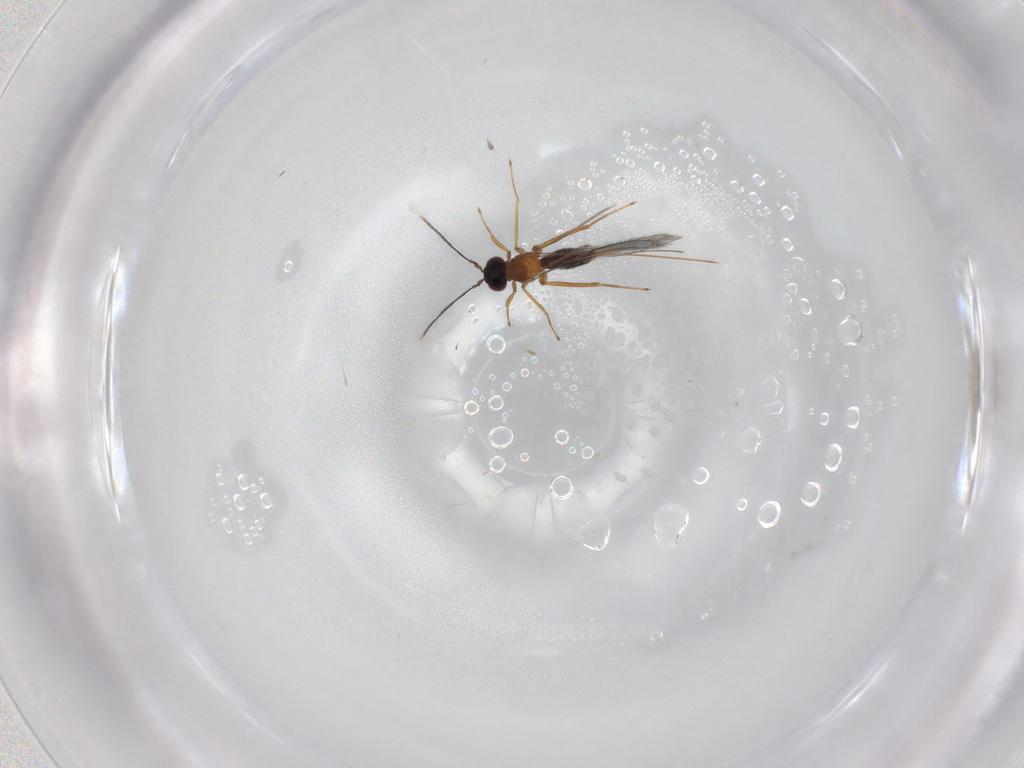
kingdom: Animalia
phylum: Arthropoda
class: Insecta
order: Hymenoptera
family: Mymaridae
